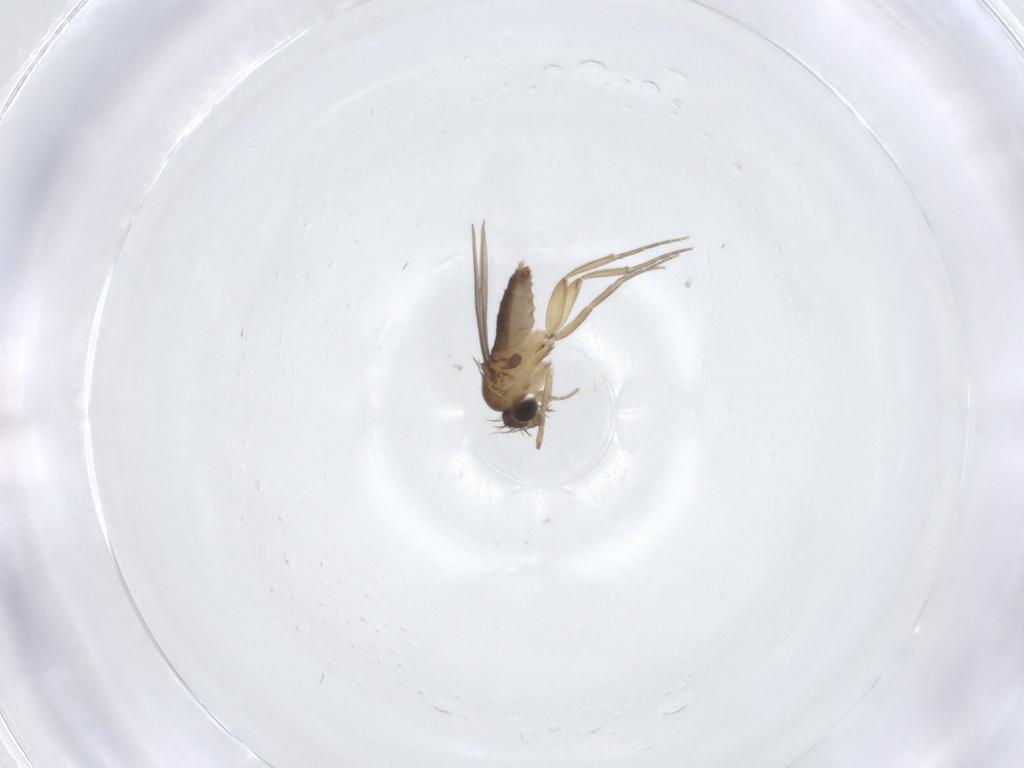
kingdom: Animalia
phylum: Arthropoda
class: Insecta
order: Diptera
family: Phoridae
